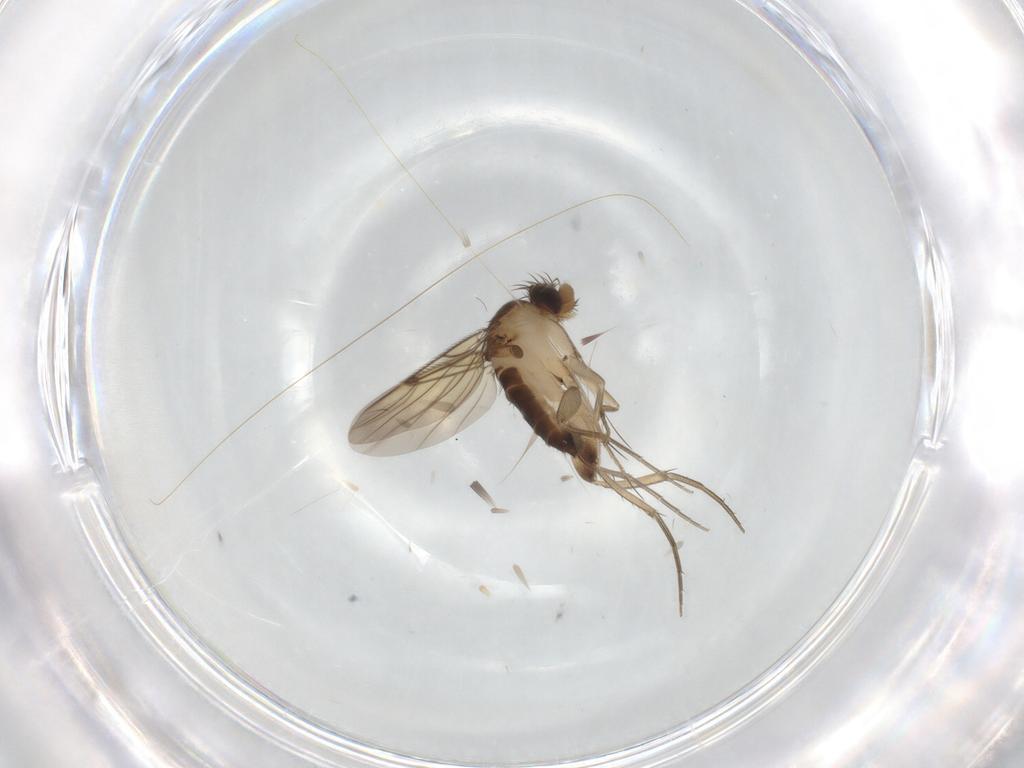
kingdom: Animalia
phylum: Arthropoda
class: Insecta
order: Diptera
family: Phoridae
